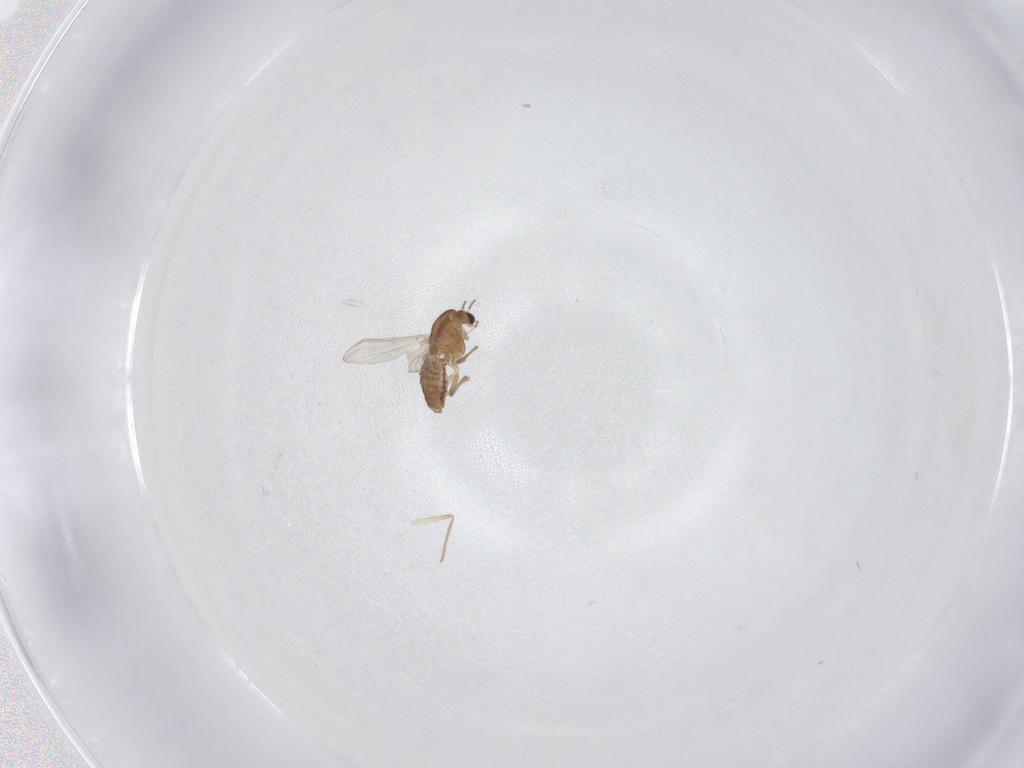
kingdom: Animalia
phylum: Arthropoda
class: Insecta
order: Diptera
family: Chironomidae
